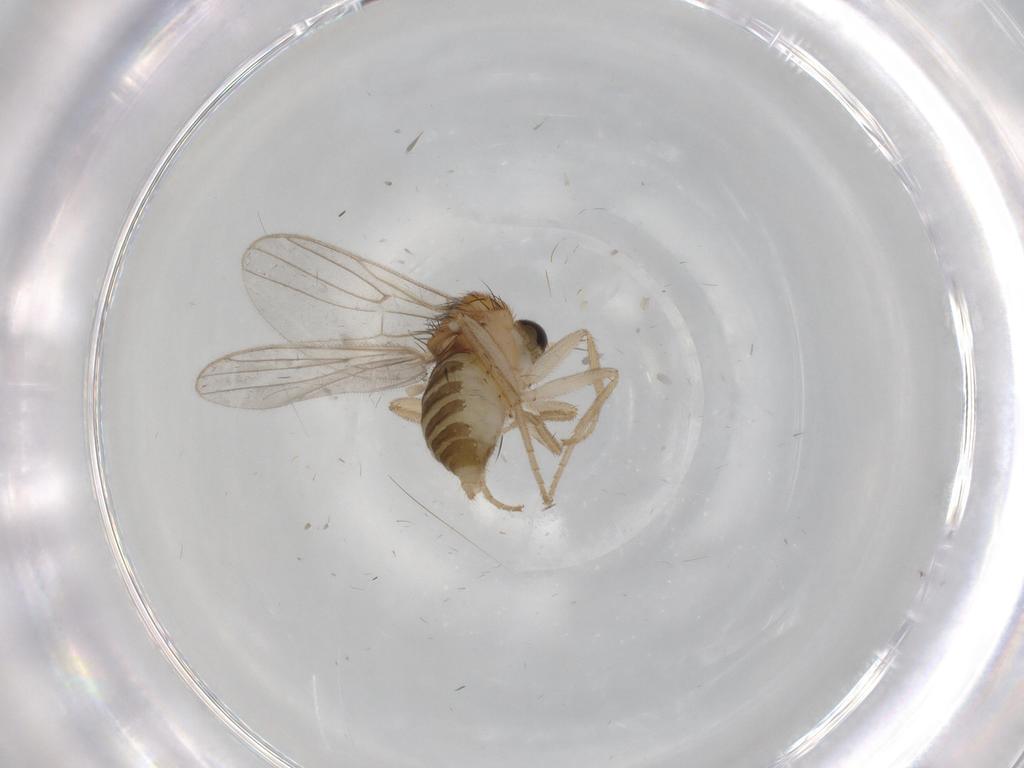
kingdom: Animalia
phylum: Arthropoda
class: Insecta
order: Diptera
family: Hybotidae
